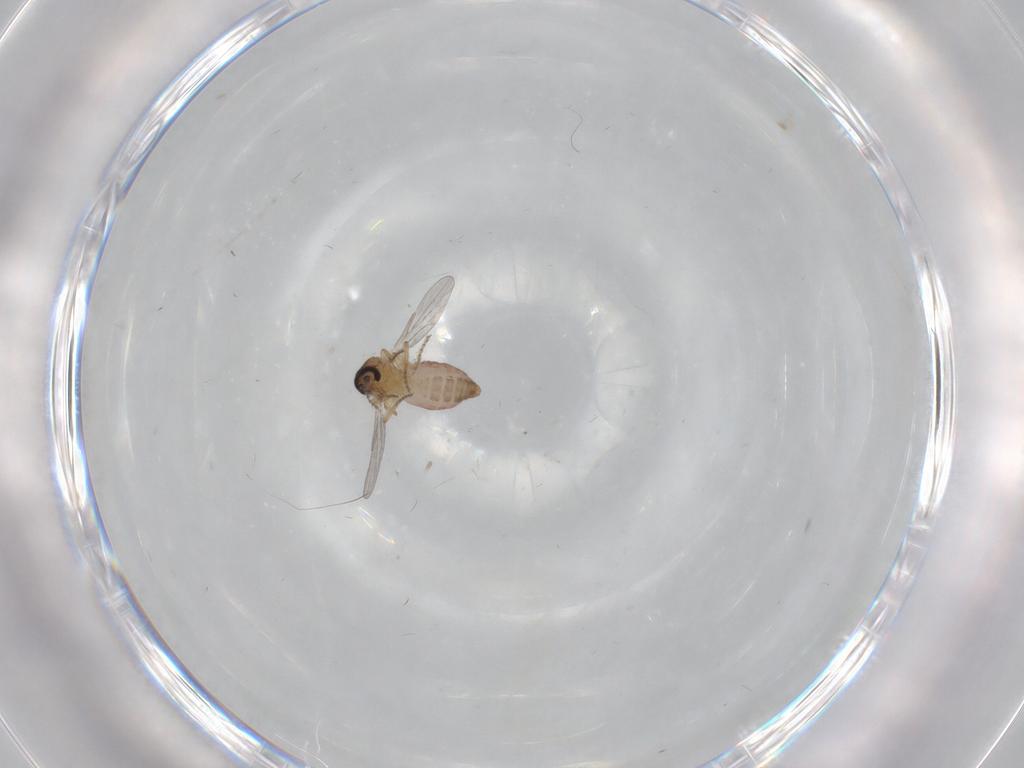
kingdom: Animalia
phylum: Arthropoda
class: Insecta
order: Diptera
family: Ceratopogonidae
